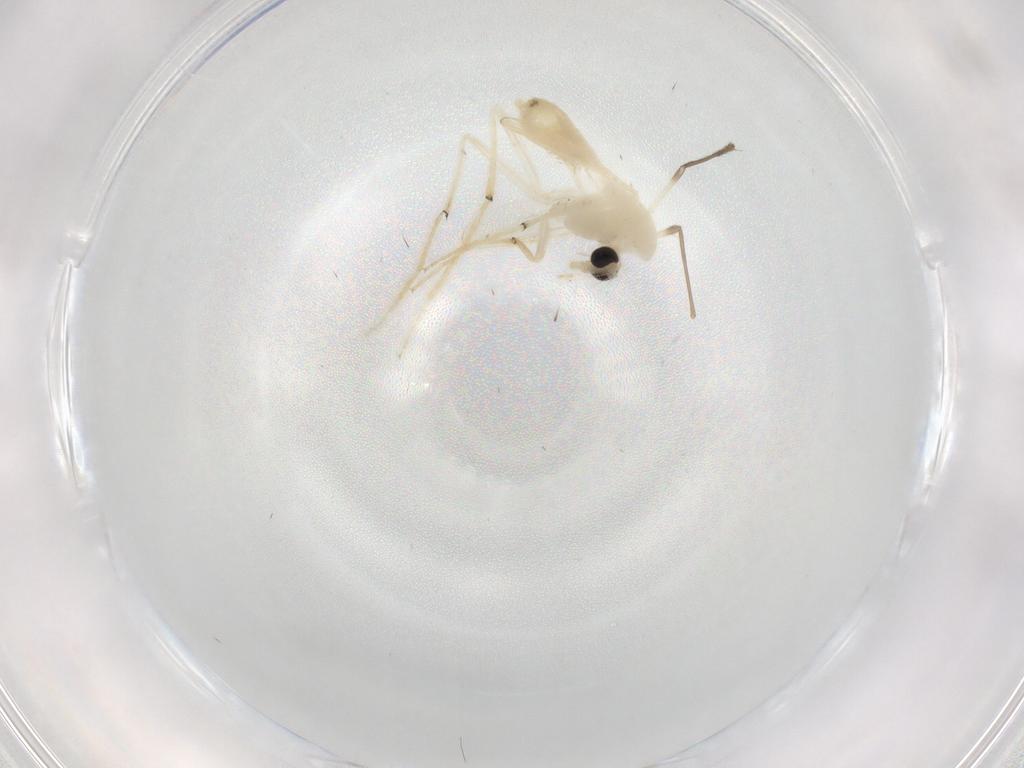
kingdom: Animalia
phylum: Arthropoda
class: Insecta
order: Diptera
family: Chironomidae
